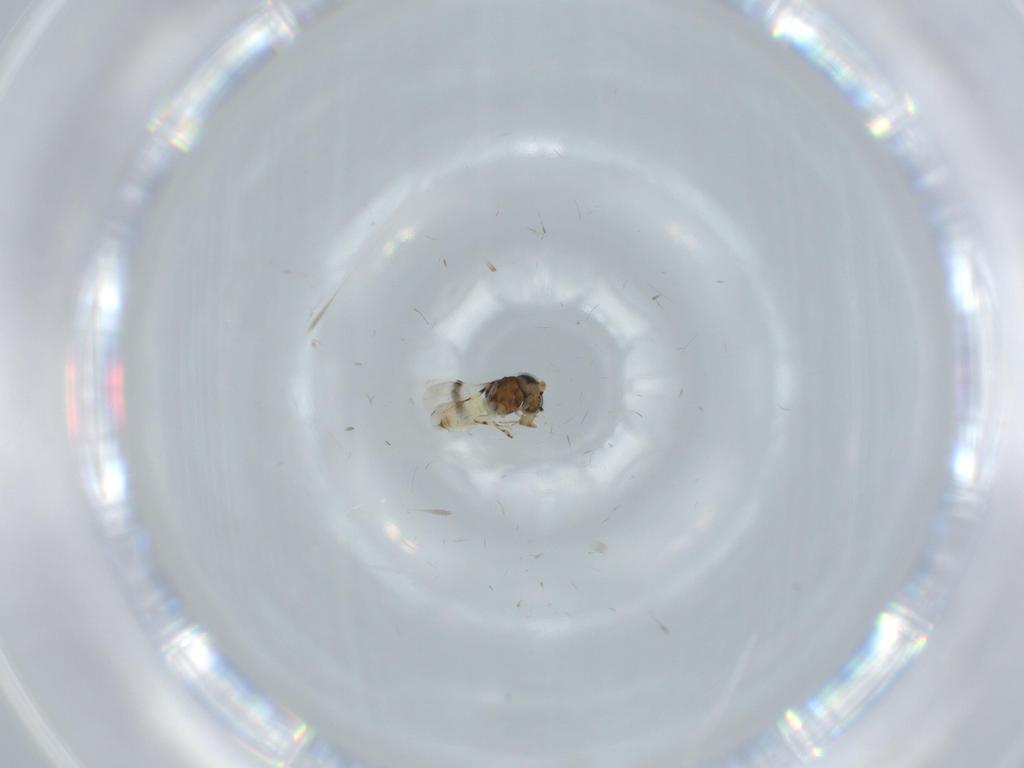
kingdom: Animalia
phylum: Arthropoda
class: Insecta
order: Hymenoptera
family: Scelionidae
